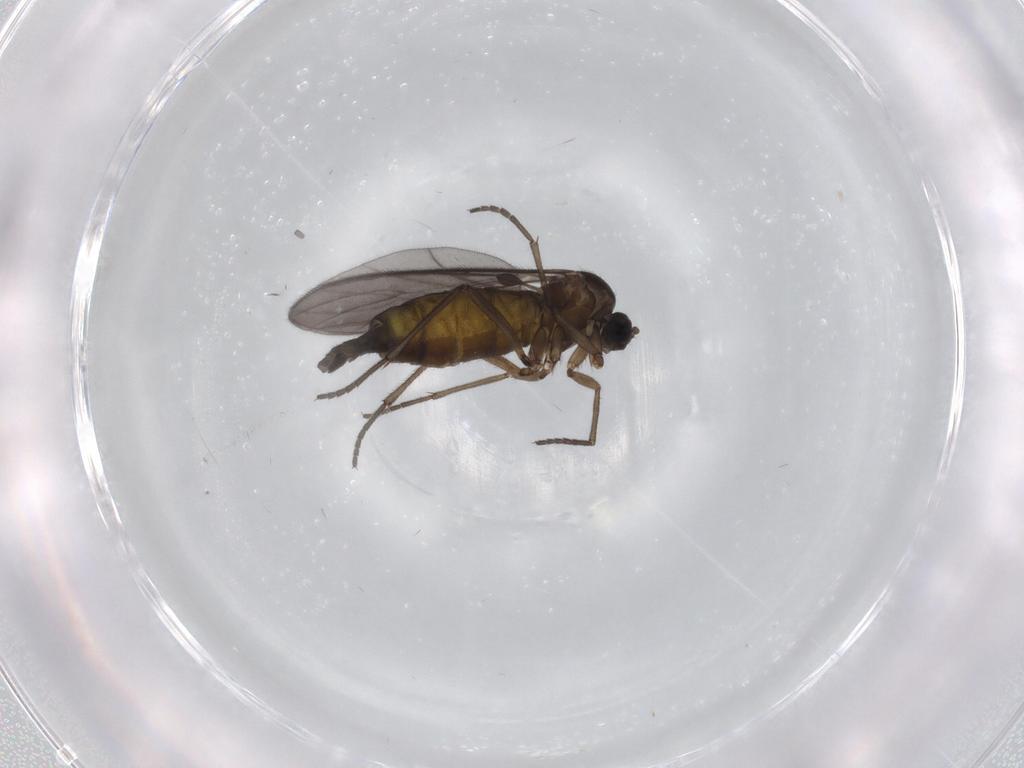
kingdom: Animalia
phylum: Arthropoda
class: Insecta
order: Diptera
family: Sciaridae
